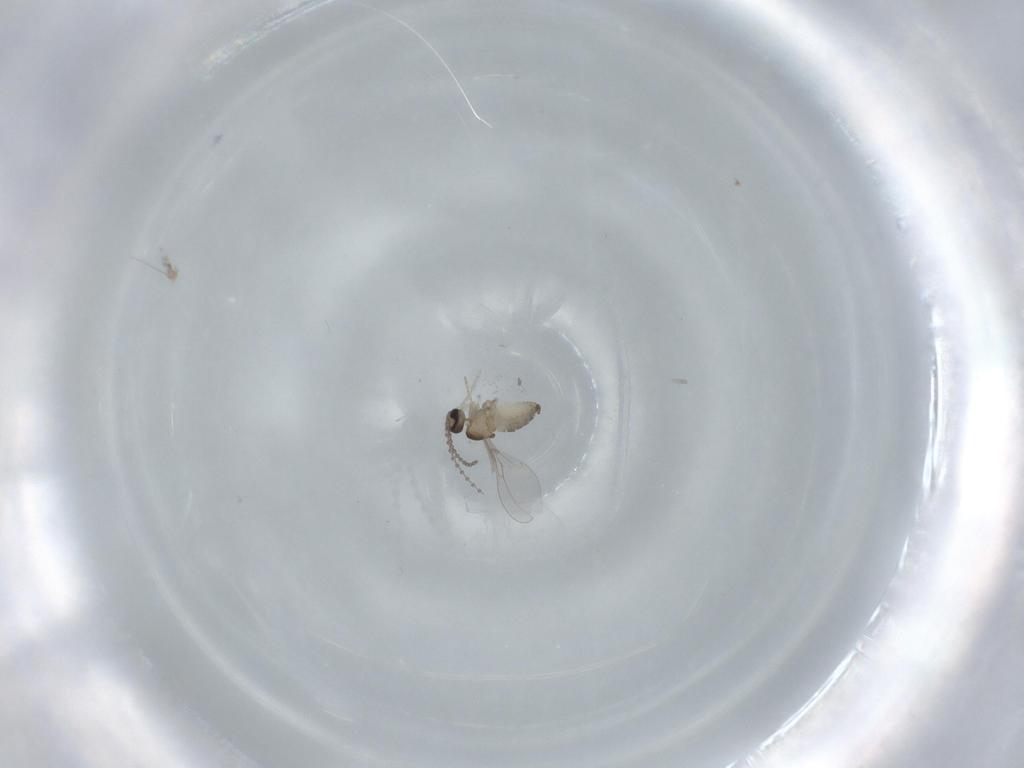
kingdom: Animalia
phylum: Arthropoda
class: Insecta
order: Diptera
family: Cecidomyiidae
